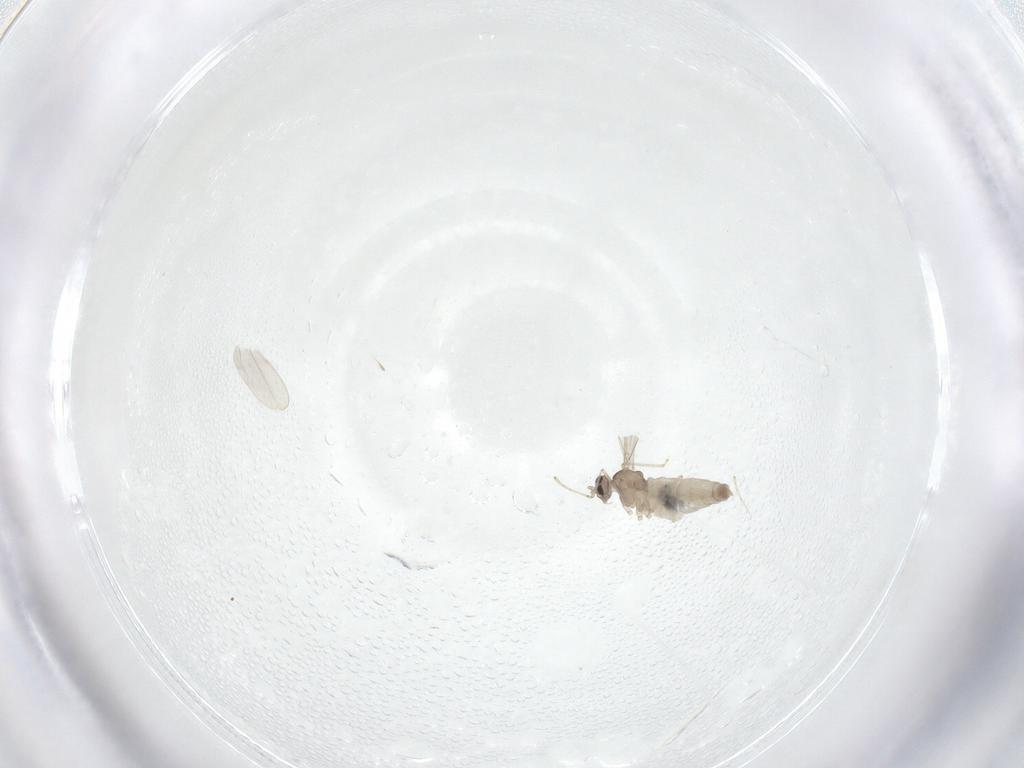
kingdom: Animalia
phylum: Arthropoda
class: Insecta
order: Diptera
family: Cecidomyiidae
